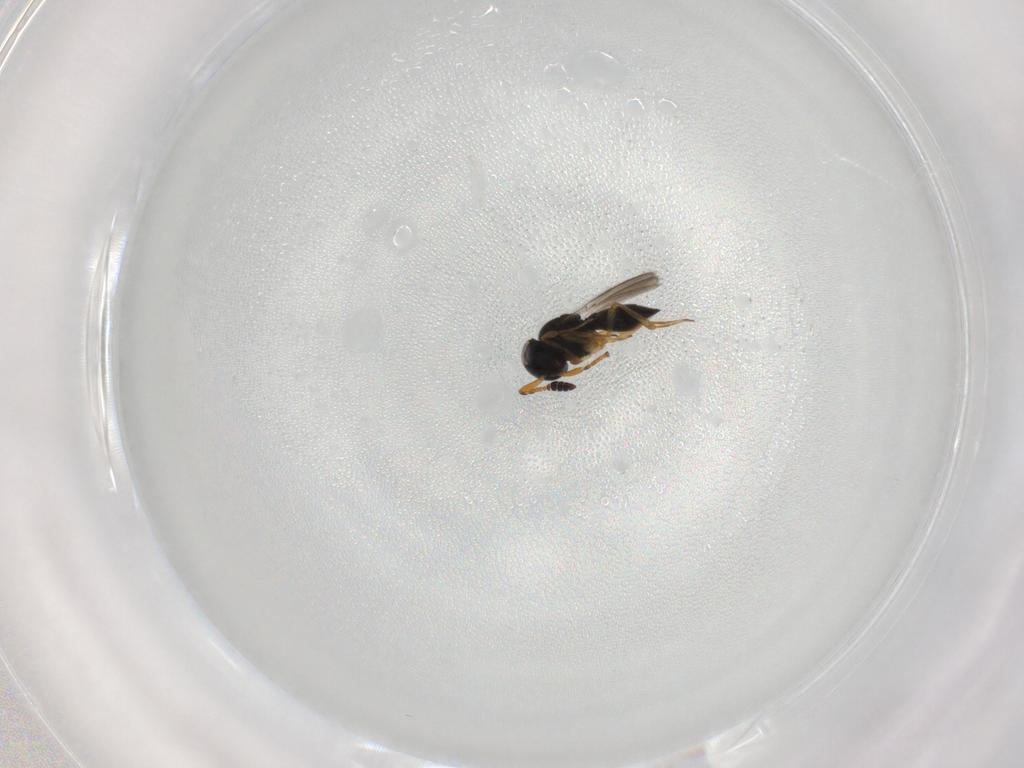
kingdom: Animalia
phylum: Arthropoda
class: Insecta
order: Hymenoptera
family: Scelionidae
